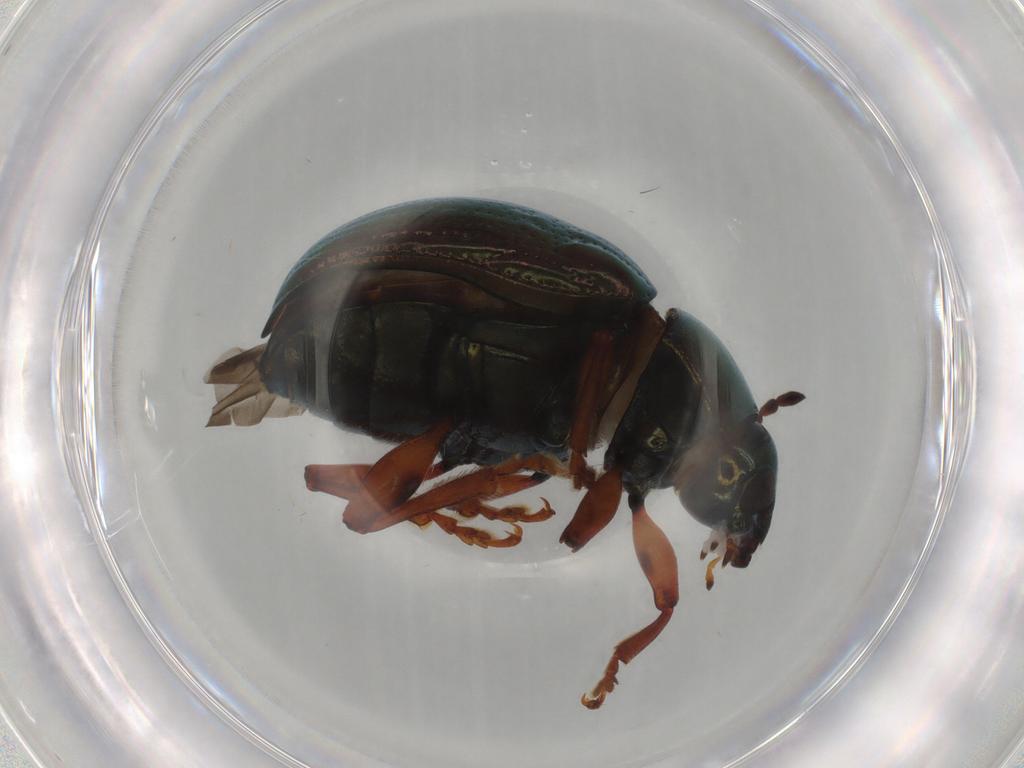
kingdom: Animalia
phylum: Arthropoda
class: Insecta
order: Coleoptera
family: Chrysomelidae
